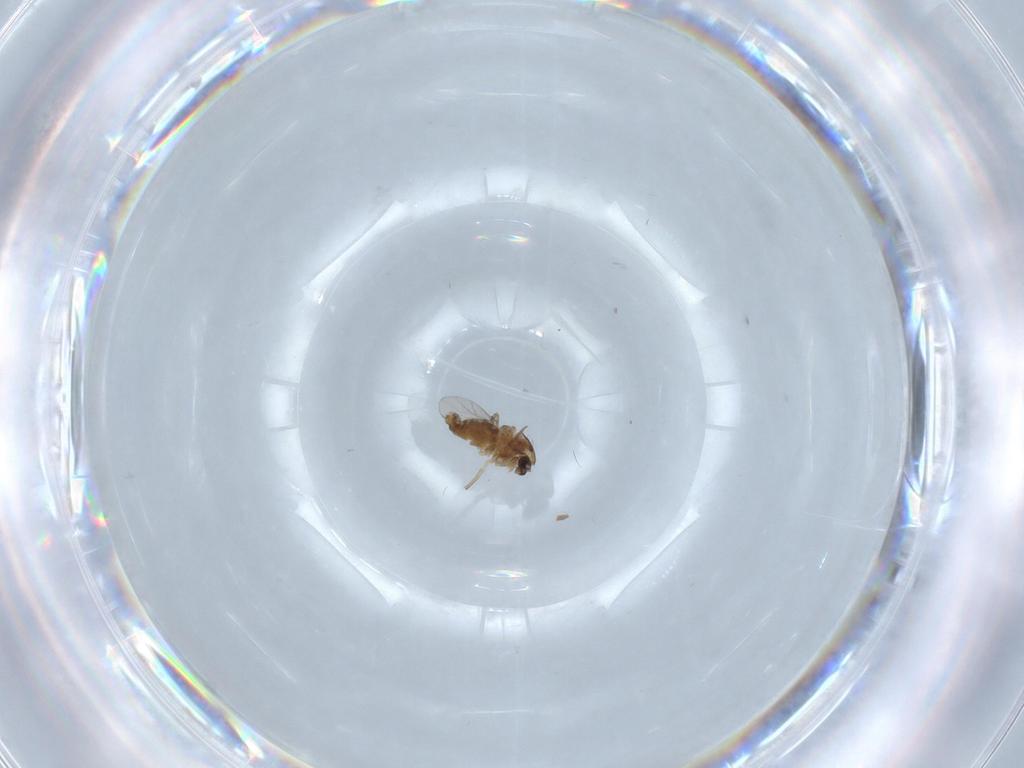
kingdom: Animalia
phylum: Arthropoda
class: Insecta
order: Diptera
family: Chironomidae
